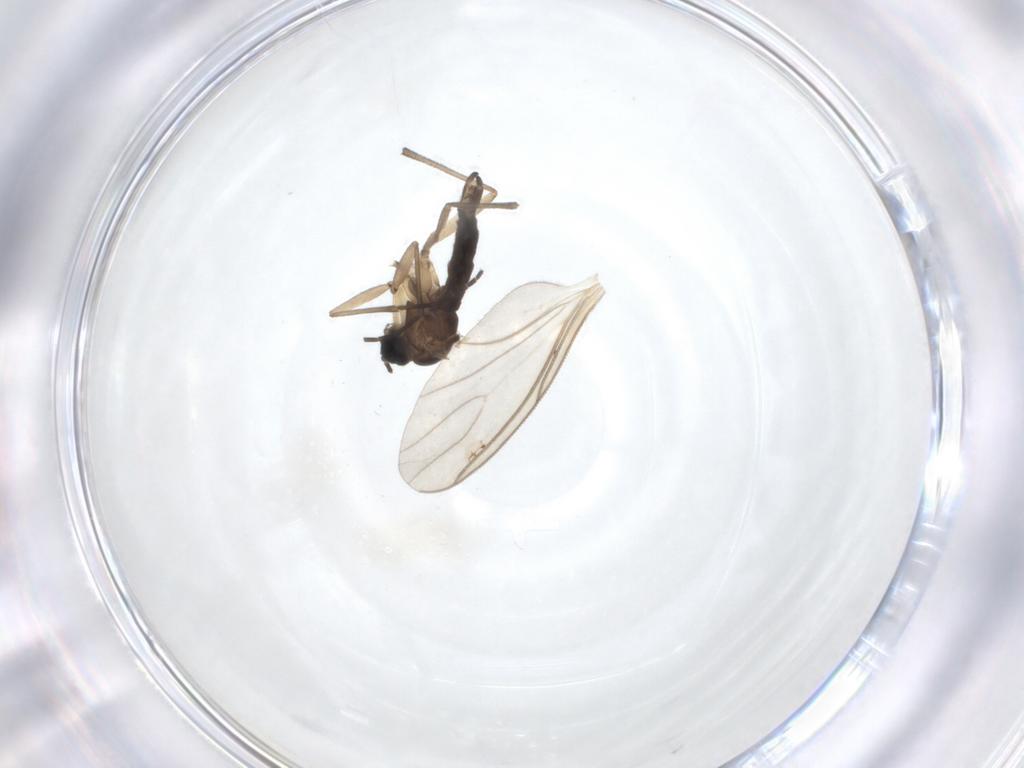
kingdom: Animalia
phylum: Arthropoda
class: Insecta
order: Diptera
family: Sciaridae
